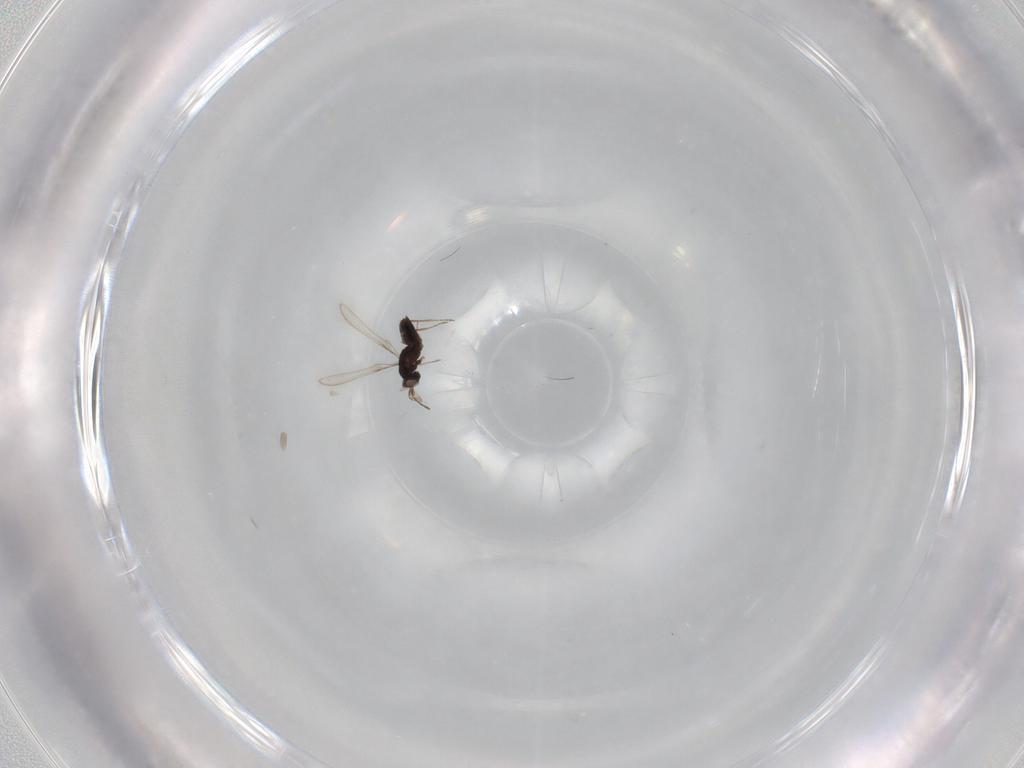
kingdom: Animalia
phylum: Arthropoda
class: Insecta
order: Hymenoptera
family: Mymaridae
